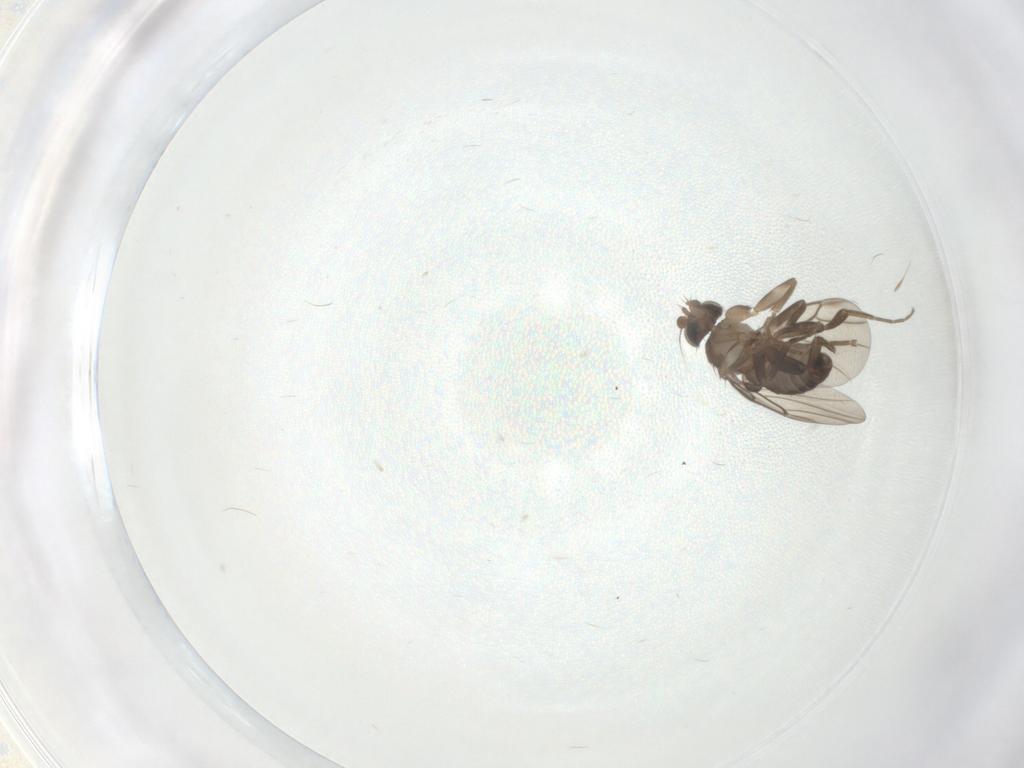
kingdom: Animalia
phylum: Arthropoda
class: Insecta
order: Diptera
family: Phoridae
